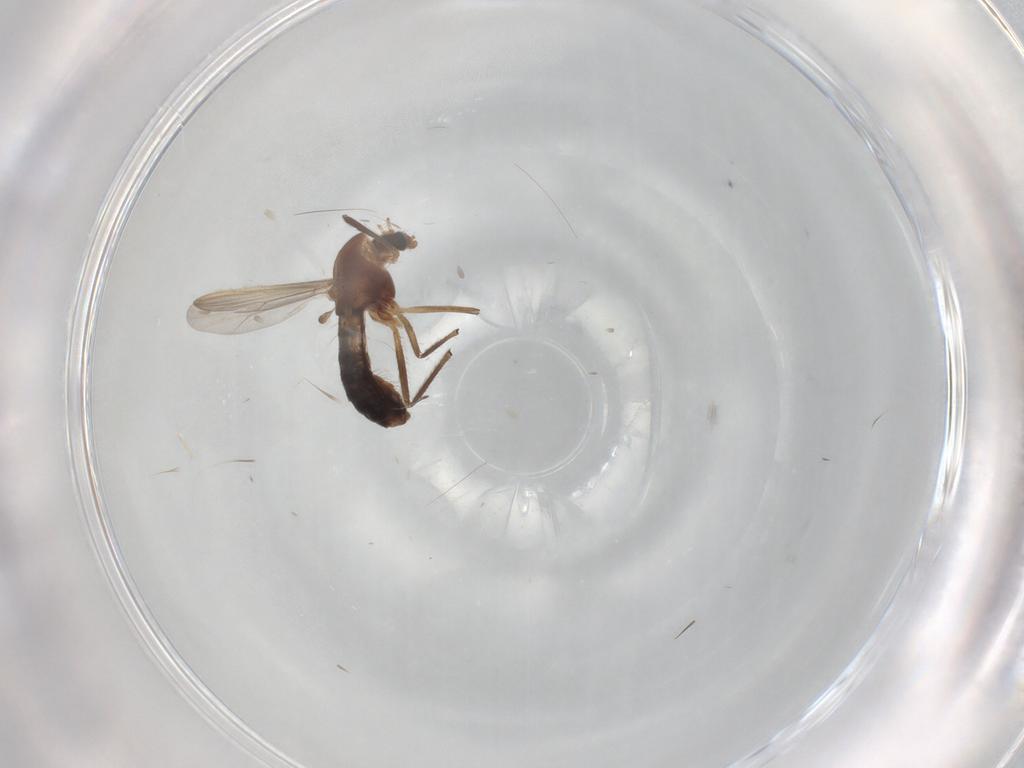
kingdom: Animalia
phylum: Arthropoda
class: Insecta
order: Diptera
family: Chironomidae
